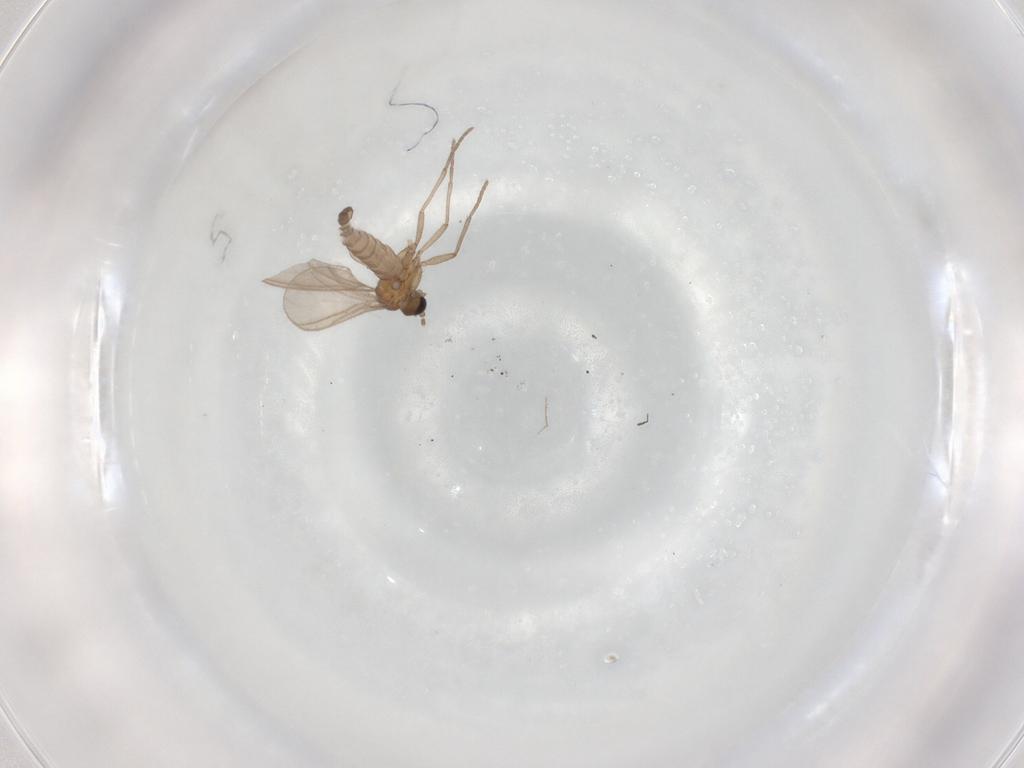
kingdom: Animalia
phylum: Arthropoda
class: Insecta
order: Diptera
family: Sciaridae
